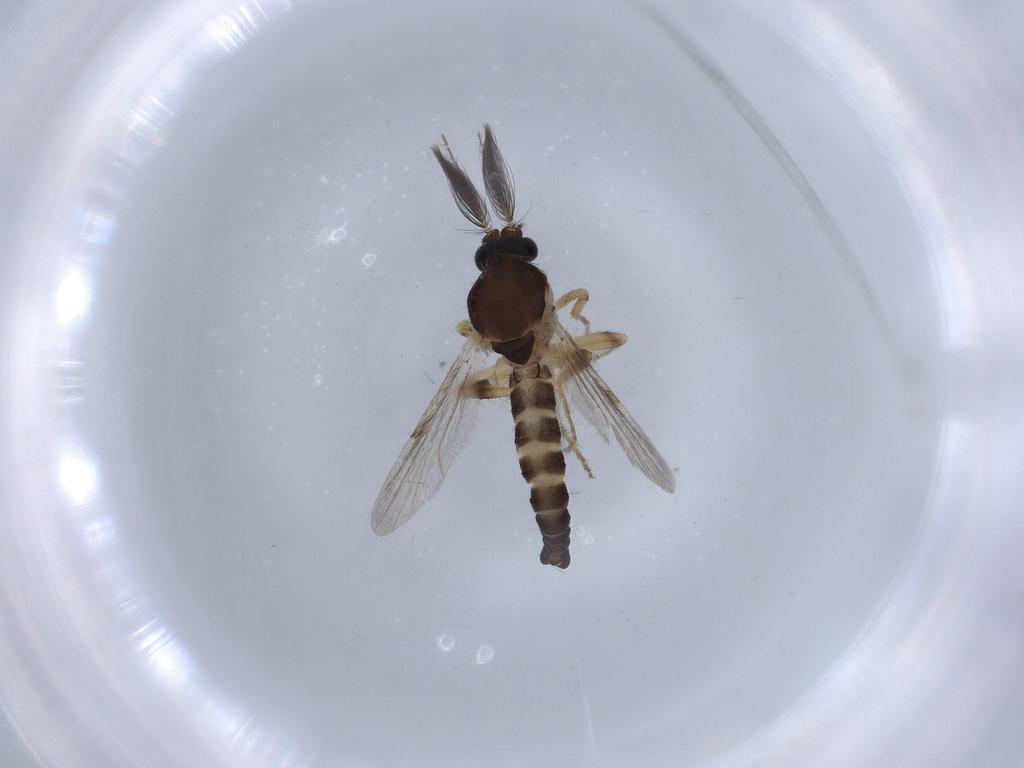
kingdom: Animalia
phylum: Arthropoda
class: Insecta
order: Diptera
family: Ceratopogonidae
